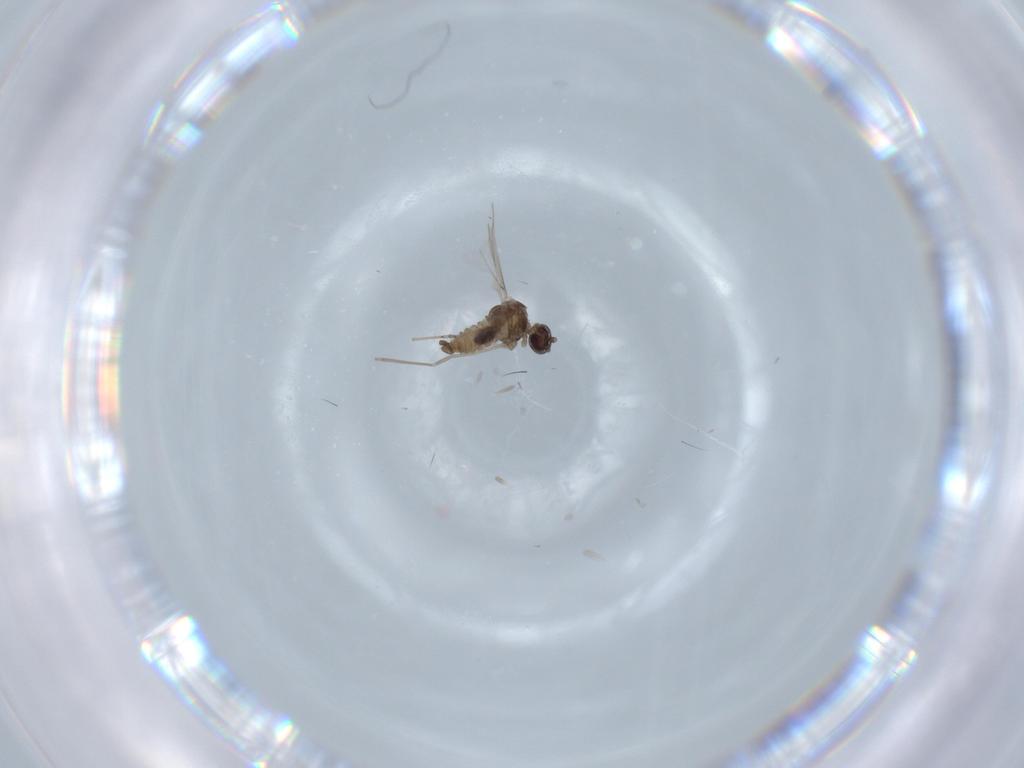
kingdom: Animalia
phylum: Arthropoda
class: Insecta
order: Diptera
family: Cecidomyiidae
